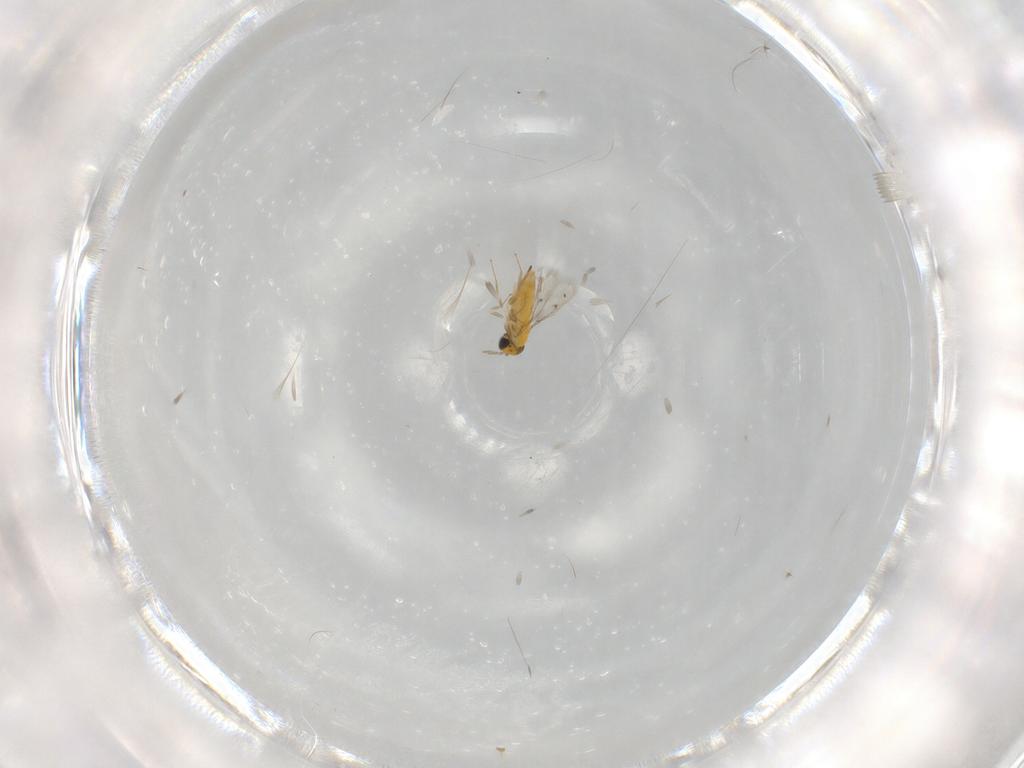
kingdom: Animalia
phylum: Arthropoda
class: Insecta
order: Hymenoptera
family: Trichogrammatidae
